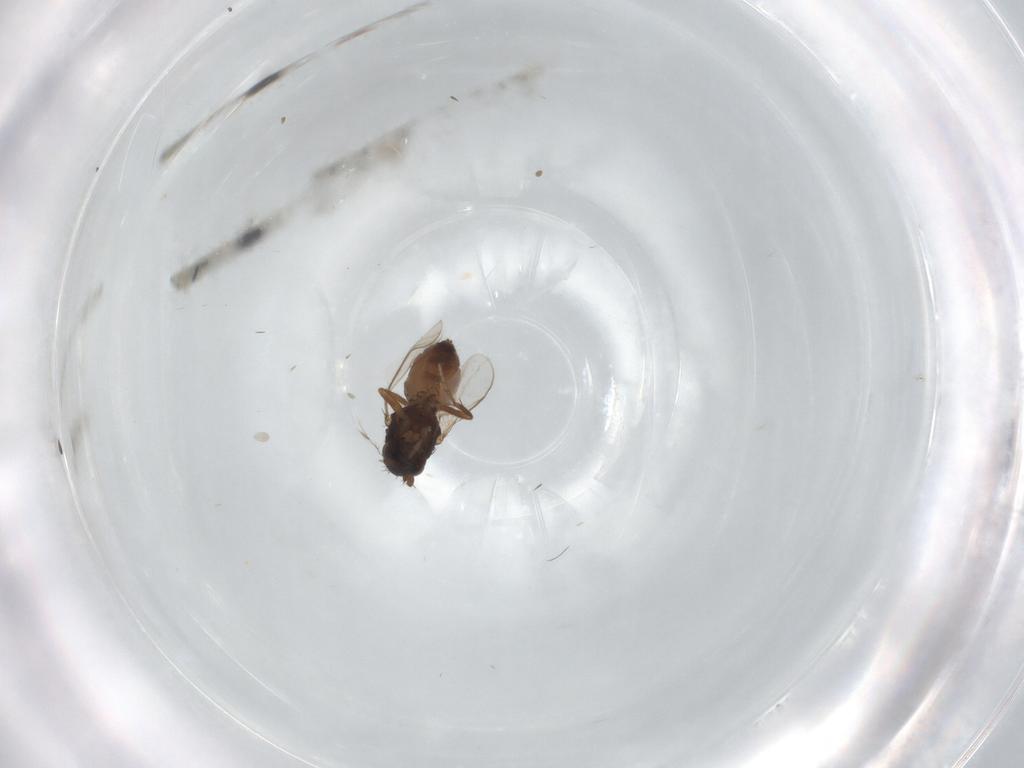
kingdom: Animalia
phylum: Arthropoda
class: Insecta
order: Diptera
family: Sphaeroceridae
